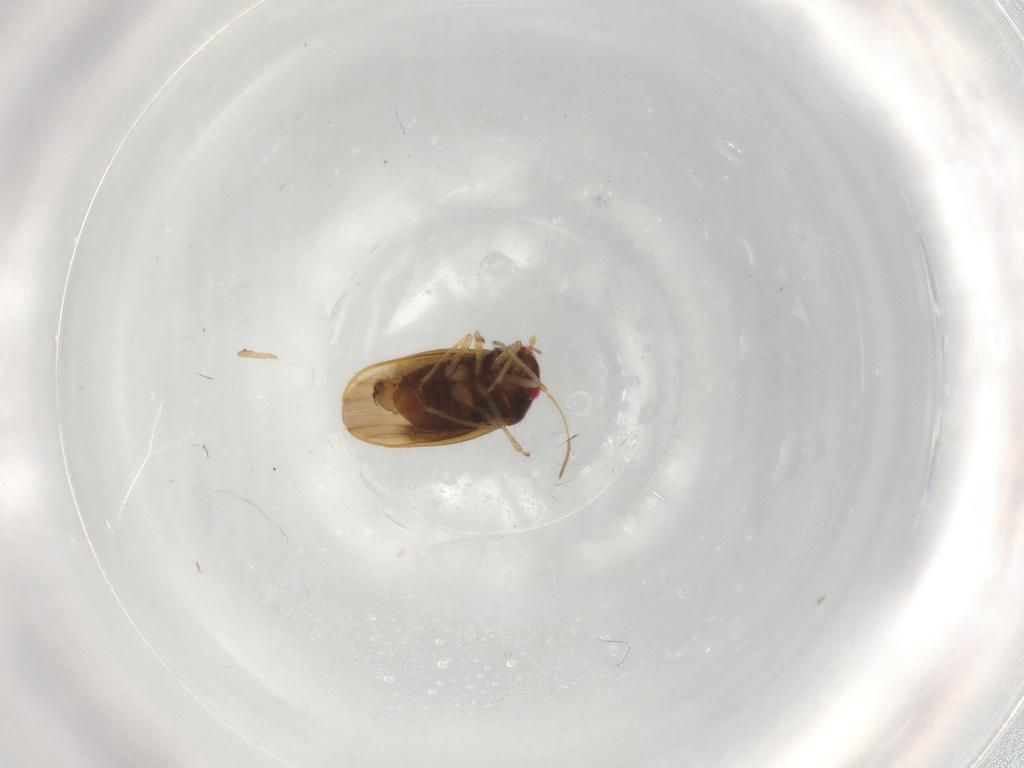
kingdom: Animalia
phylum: Arthropoda
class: Insecta
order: Hemiptera
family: Schizopteridae
